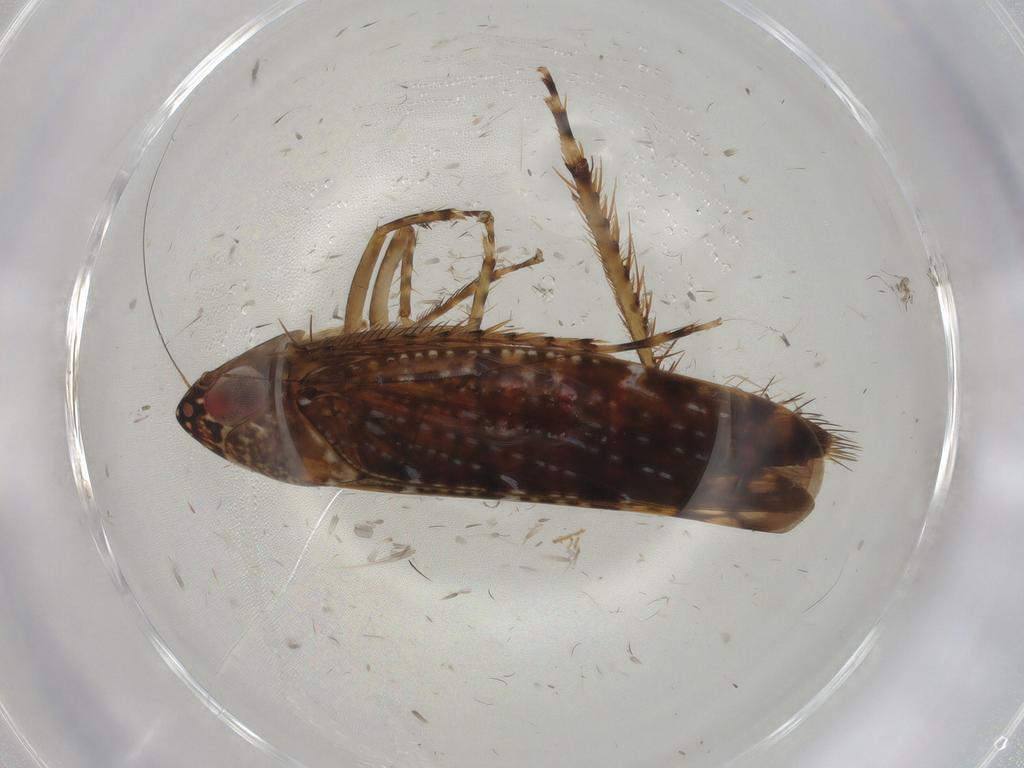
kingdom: Animalia
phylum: Arthropoda
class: Insecta
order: Hemiptera
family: Cicadellidae
